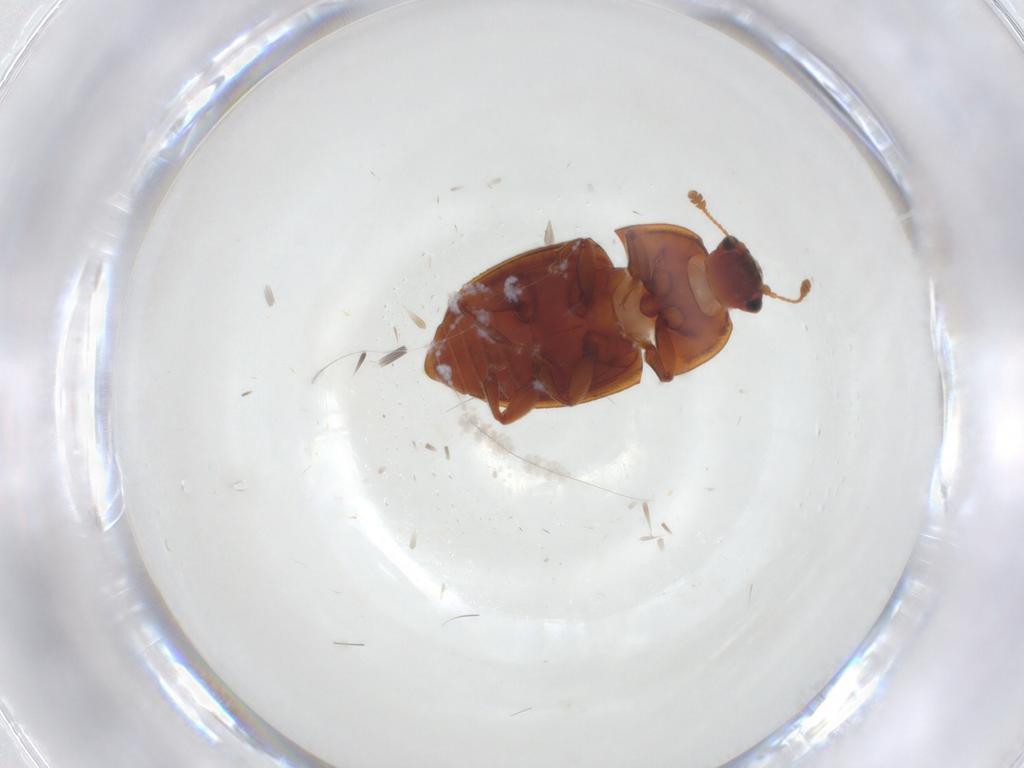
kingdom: Animalia
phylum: Arthropoda
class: Insecta
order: Coleoptera
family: Nitidulidae
